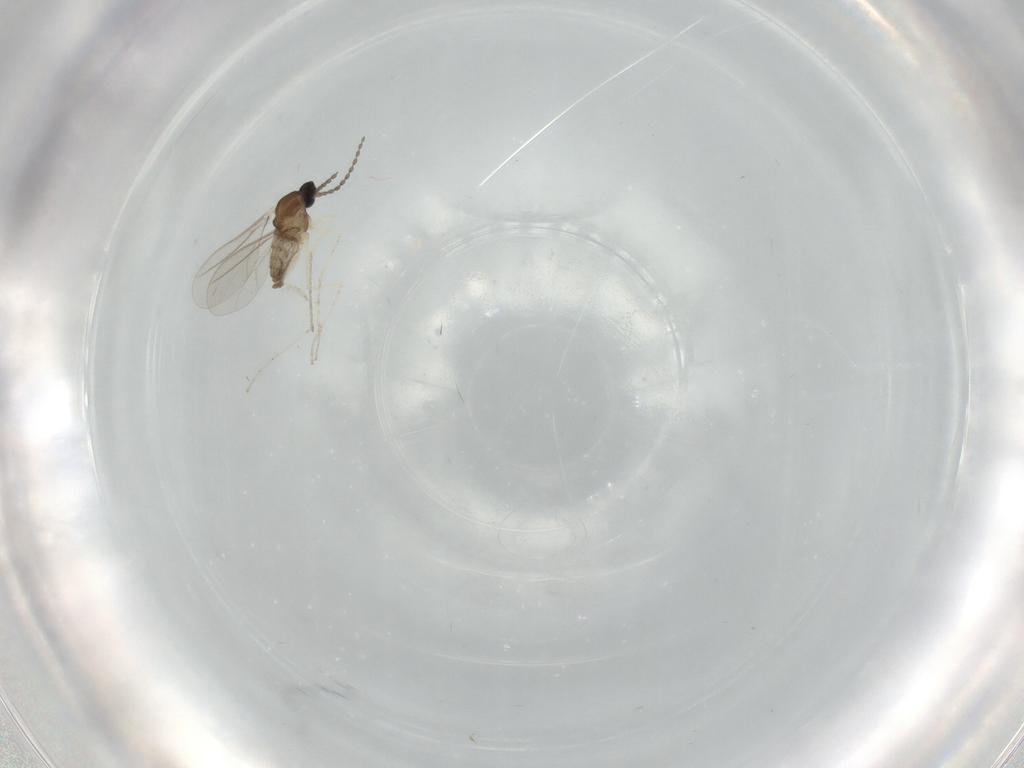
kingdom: Animalia
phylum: Arthropoda
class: Insecta
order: Diptera
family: Cecidomyiidae
